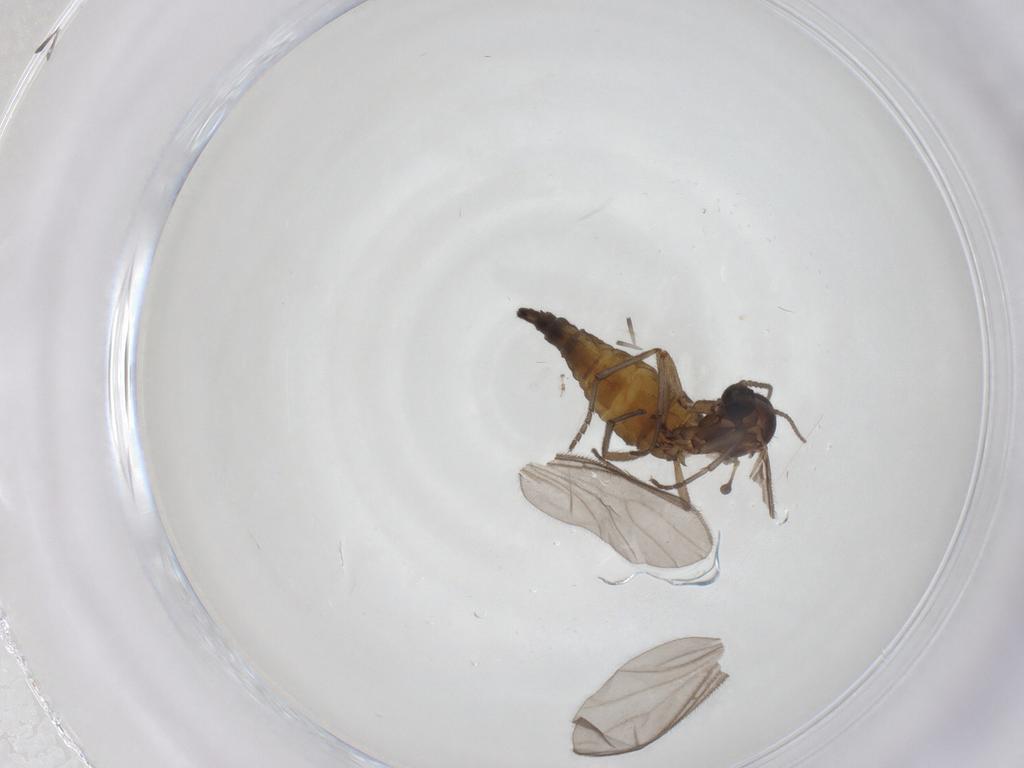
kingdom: Animalia
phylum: Arthropoda
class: Insecta
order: Diptera
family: Sciaridae
